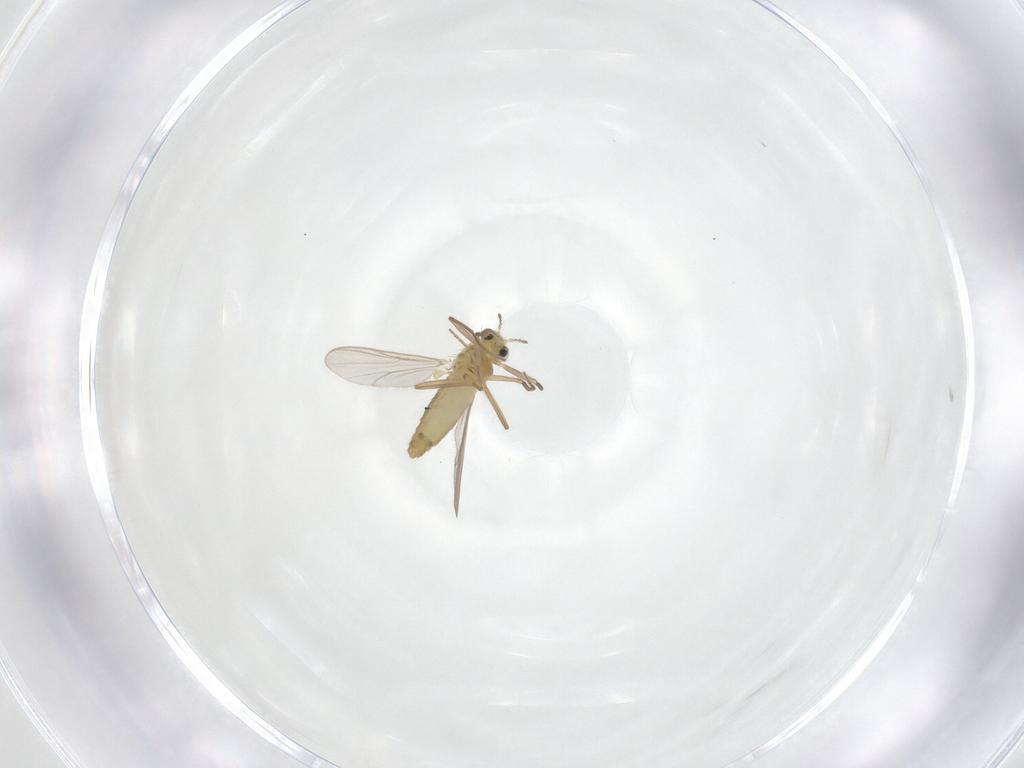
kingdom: Animalia
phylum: Arthropoda
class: Insecta
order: Diptera
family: Chironomidae
